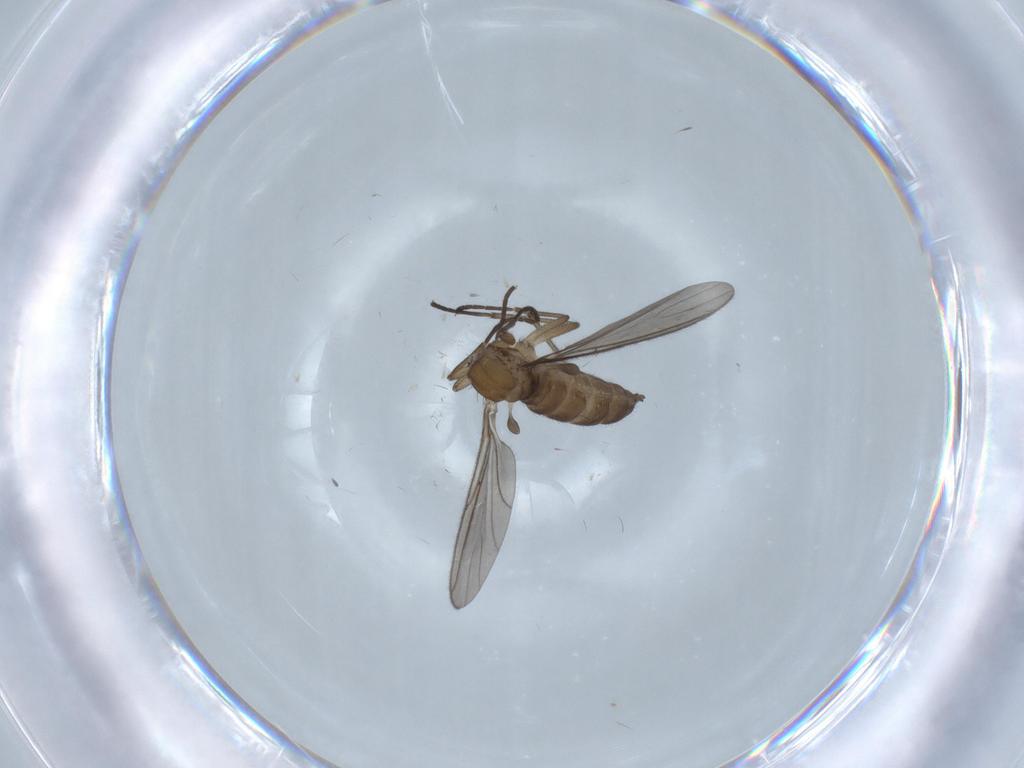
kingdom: Animalia
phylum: Arthropoda
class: Insecta
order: Diptera
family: Sciaridae
